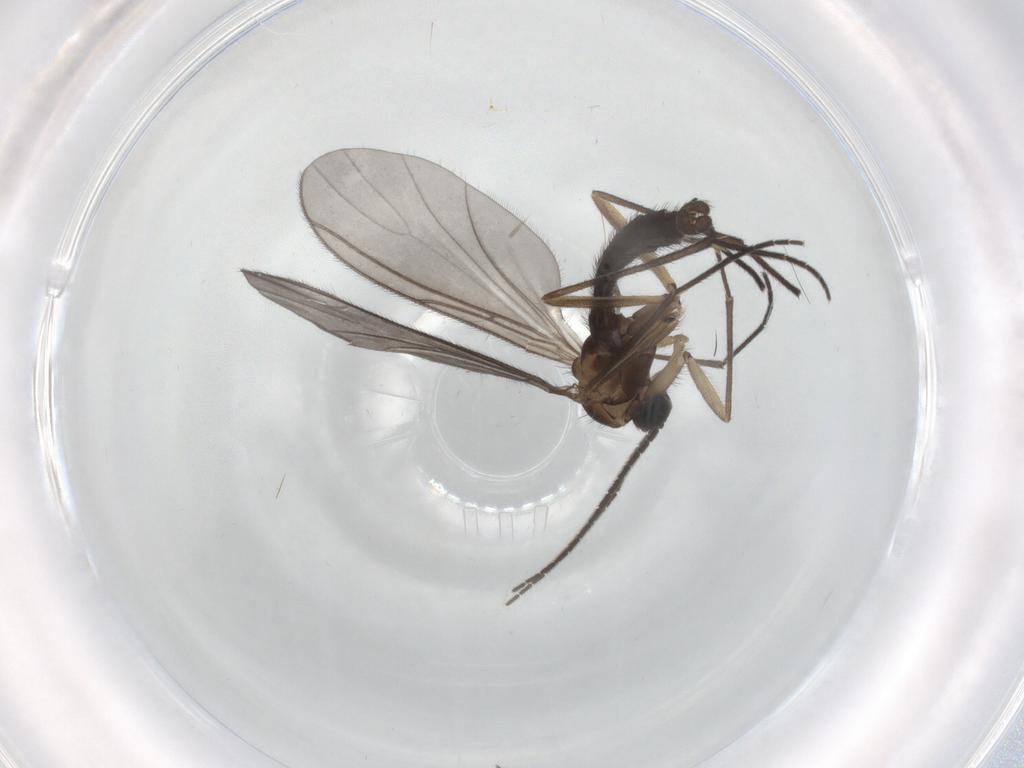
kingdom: Animalia
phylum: Arthropoda
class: Insecta
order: Diptera
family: Sciaridae
